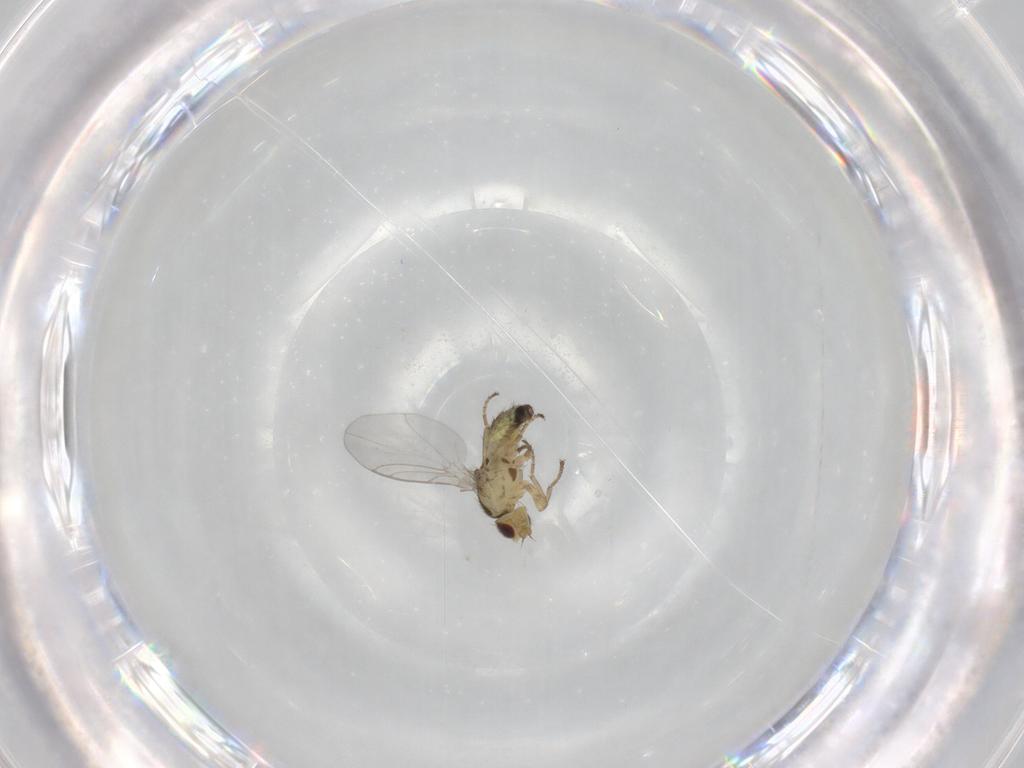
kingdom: Animalia
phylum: Arthropoda
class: Insecta
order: Diptera
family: Agromyzidae
